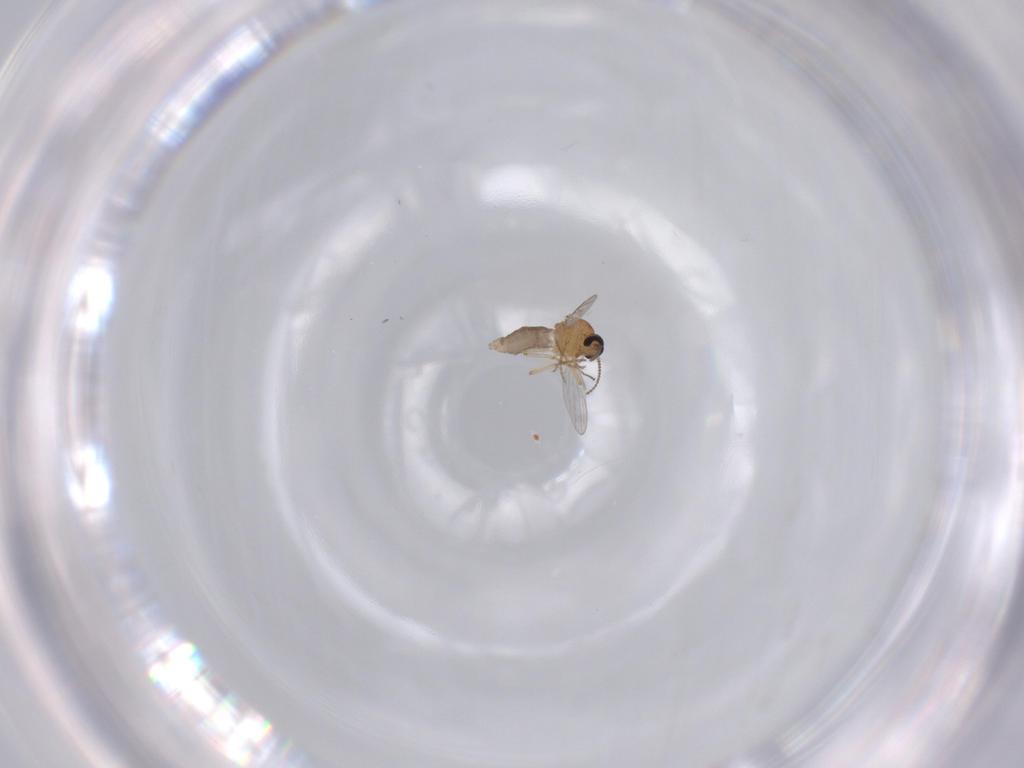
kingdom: Animalia
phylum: Arthropoda
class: Insecta
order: Diptera
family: Ceratopogonidae
